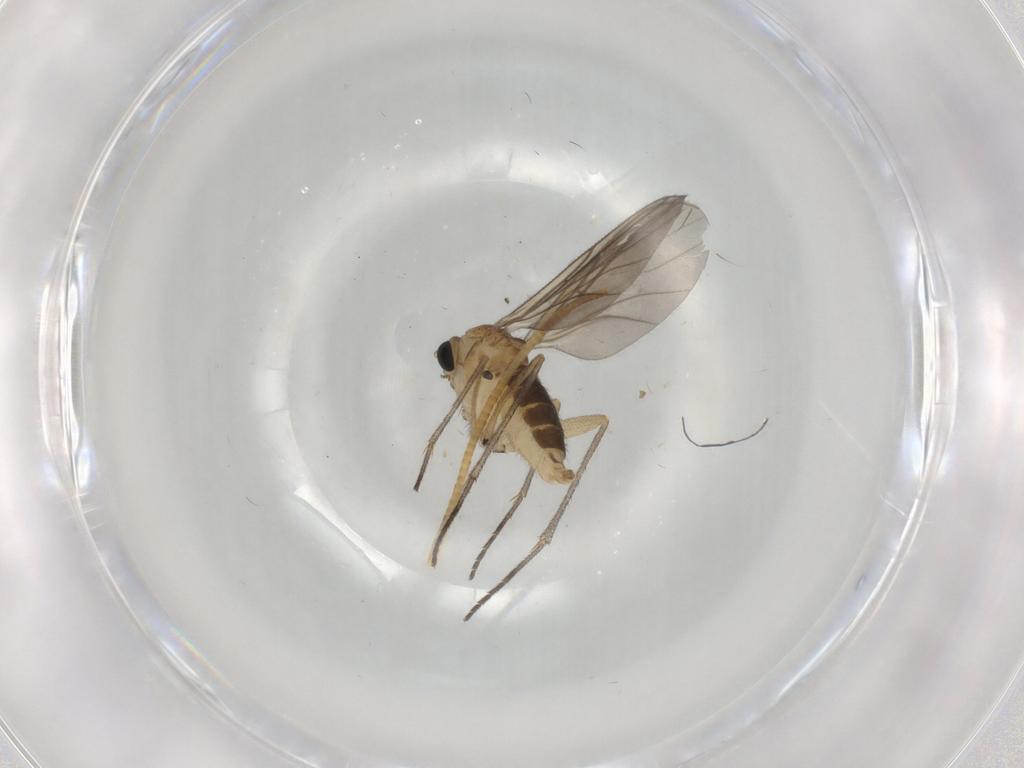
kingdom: Animalia
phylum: Arthropoda
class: Insecta
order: Diptera
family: Sciaridae
